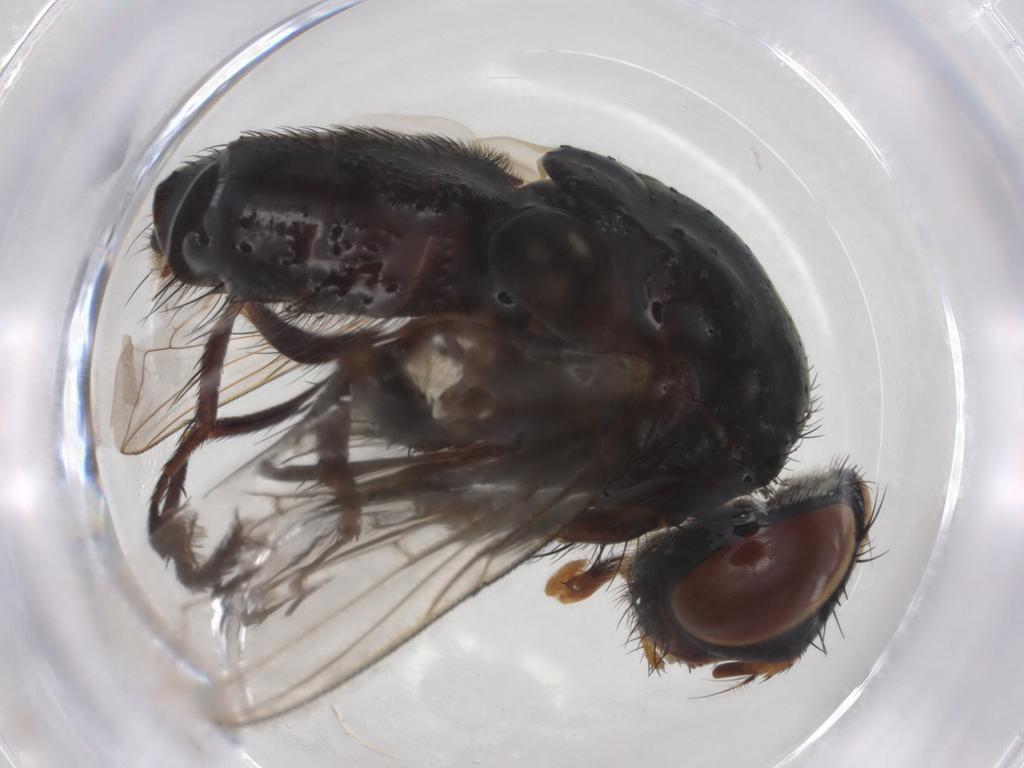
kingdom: Animalia
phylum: Arthropoda
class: Insecta
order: Diptera
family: Sarcophagidae
